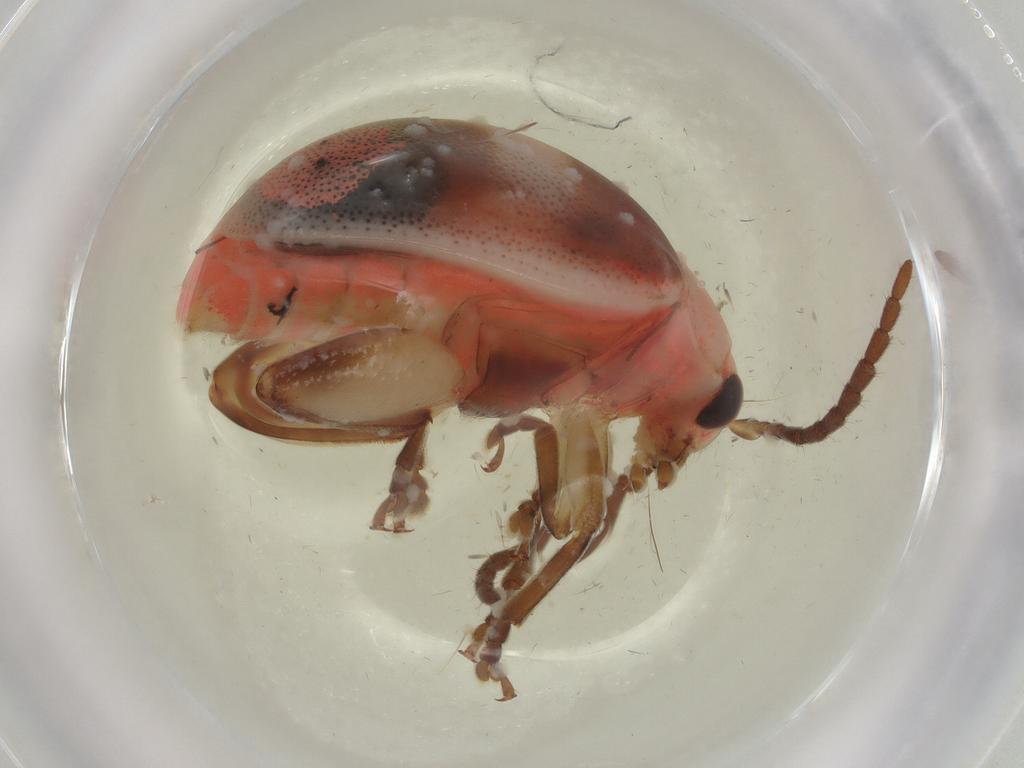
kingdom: Animalia
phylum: Arthropoda
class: Insecta
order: Coleoptera
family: Chrysomelidae
